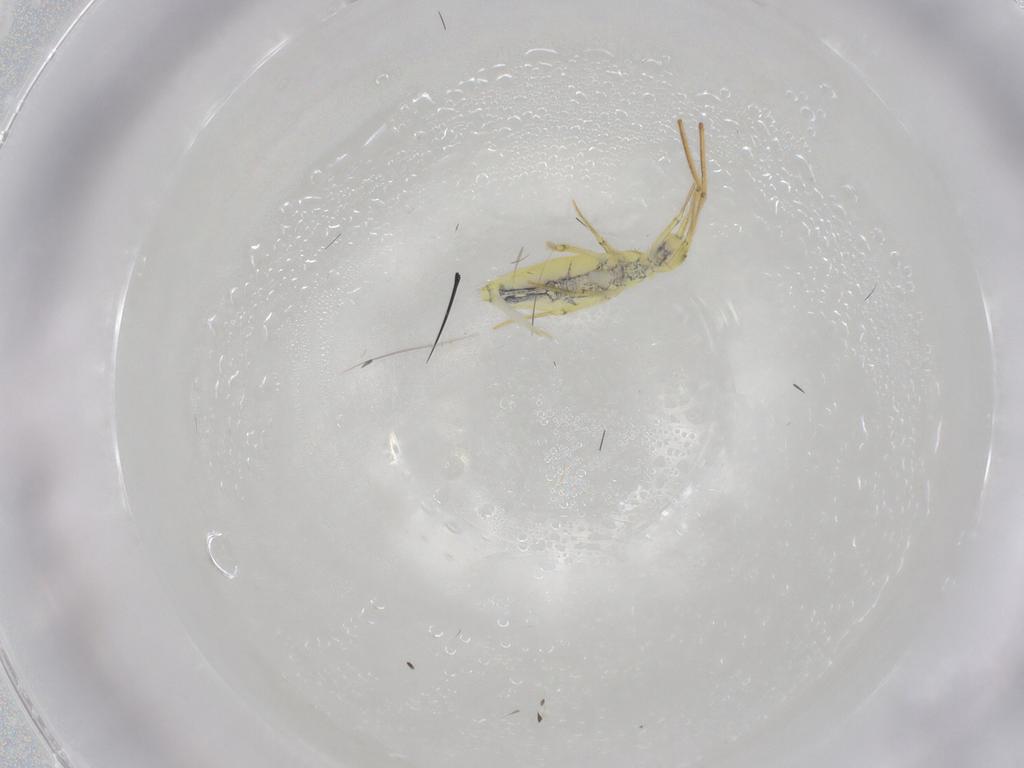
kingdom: Animalia
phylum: Arthropoda
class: Collembola
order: Entomobryomorpha
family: Entomobryidae
